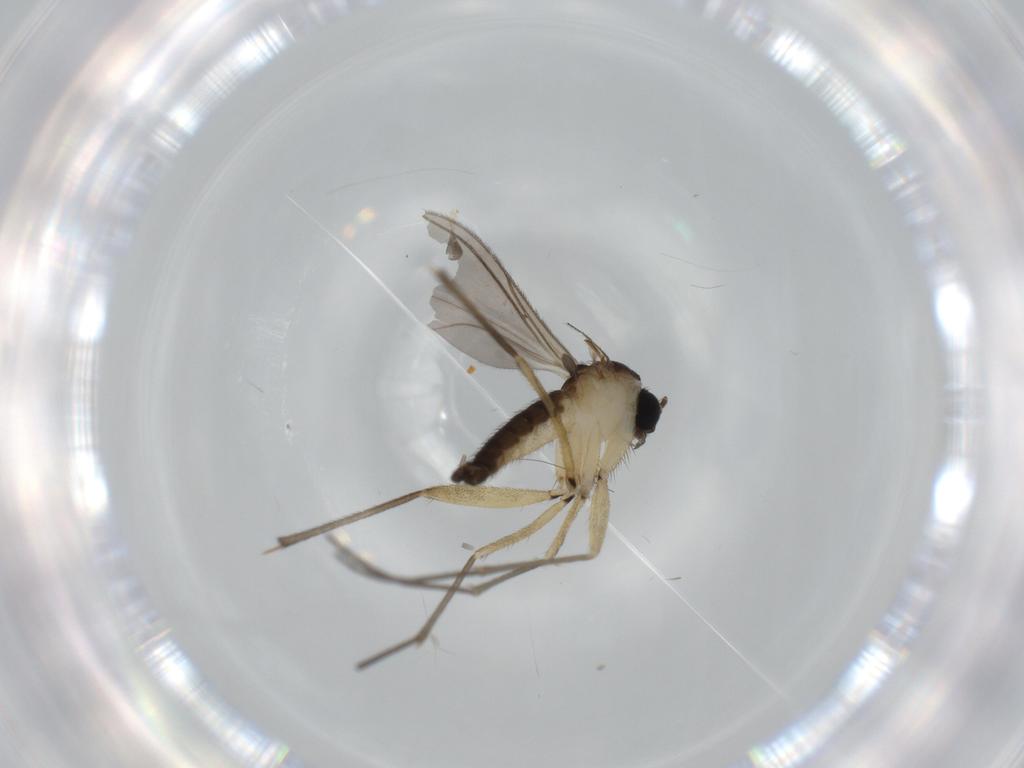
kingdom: Animalia
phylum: Arthropoda
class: Insecta
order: Diptera
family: Sciaridae
